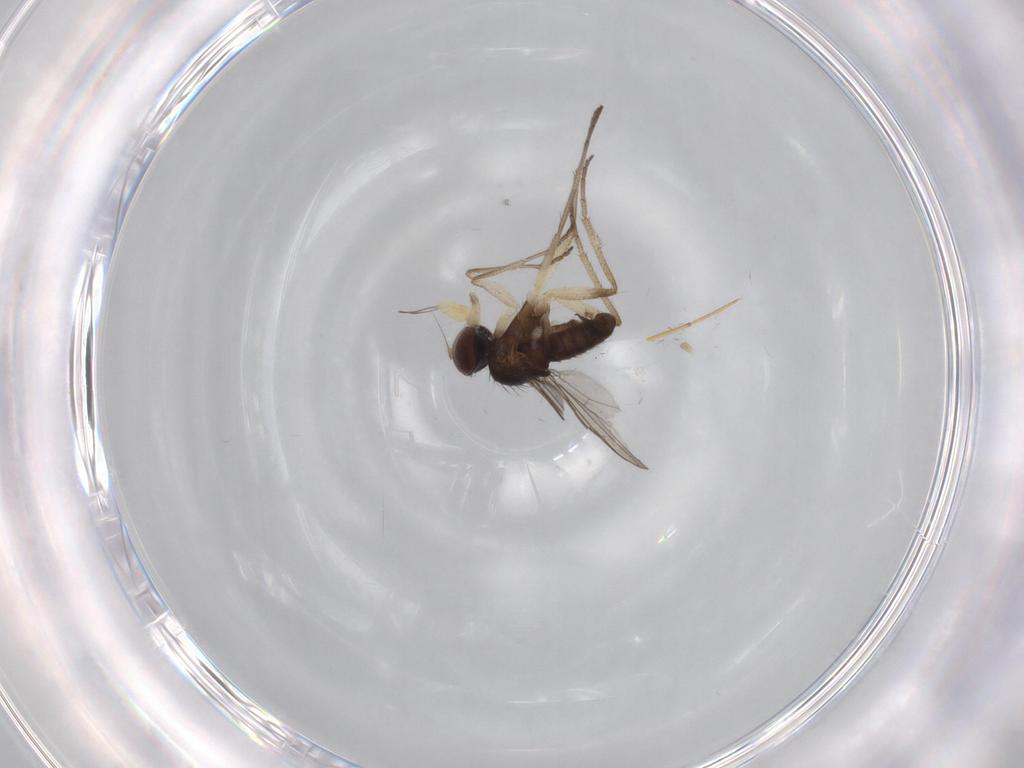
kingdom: Animalia
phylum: Arthropoda
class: Insecta
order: Diptera
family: Dolichopodidae
